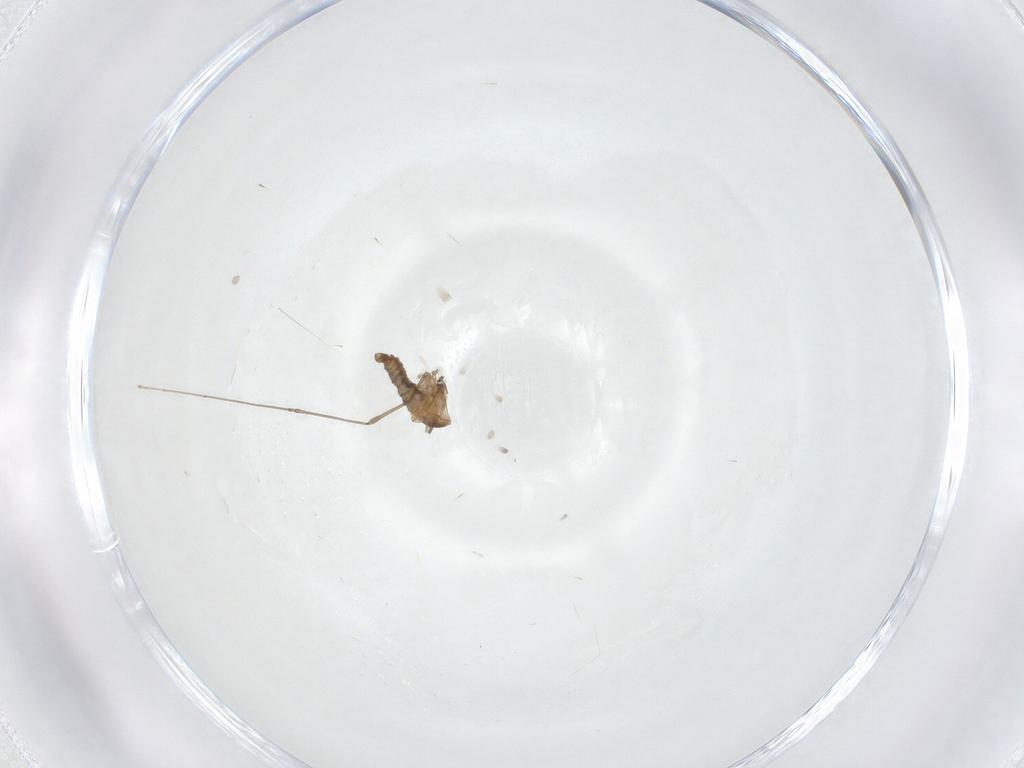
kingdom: Animalia
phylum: Arthropoda
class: Insecta
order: Diptera
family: Cecidomyiidae
